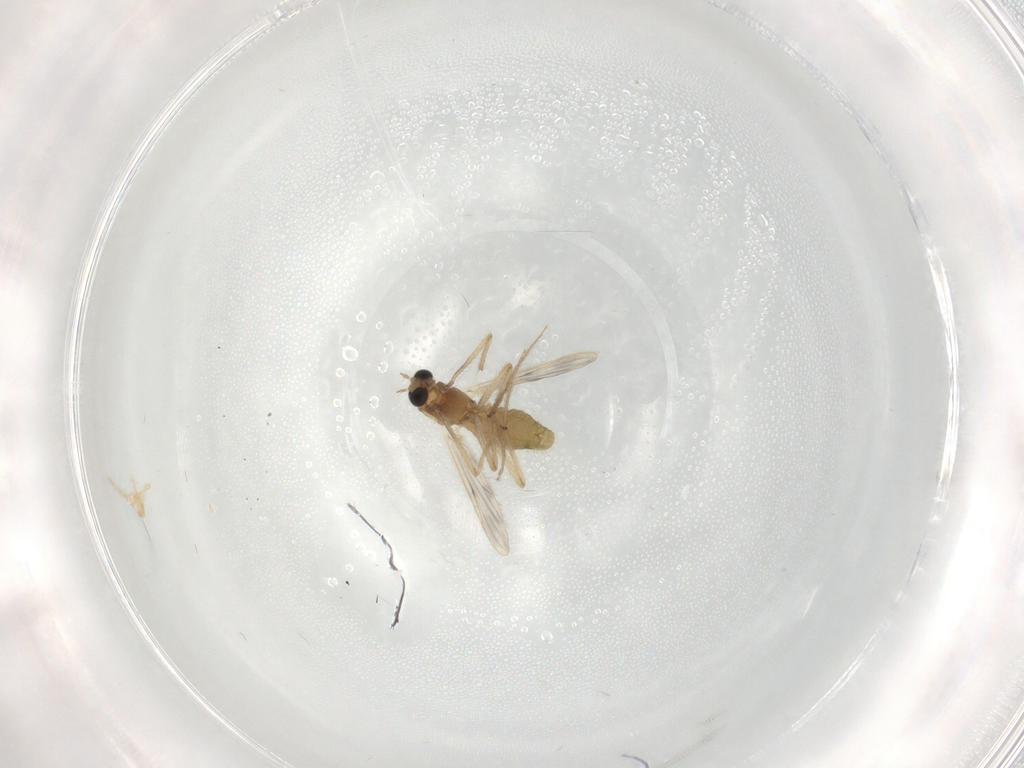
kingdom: Animalia
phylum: Arthropoda
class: Insecta
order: Diptera
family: Chironomidae
